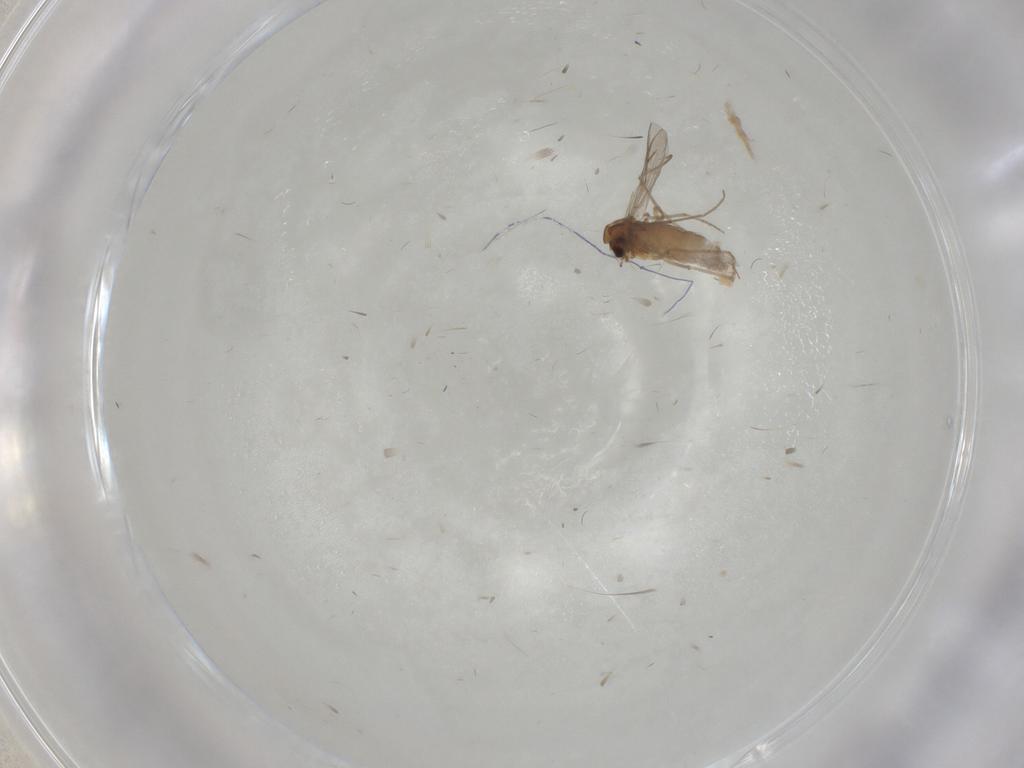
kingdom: Animalia
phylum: Arthropoda
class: Insecta
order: Diptera
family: Chironomidae
